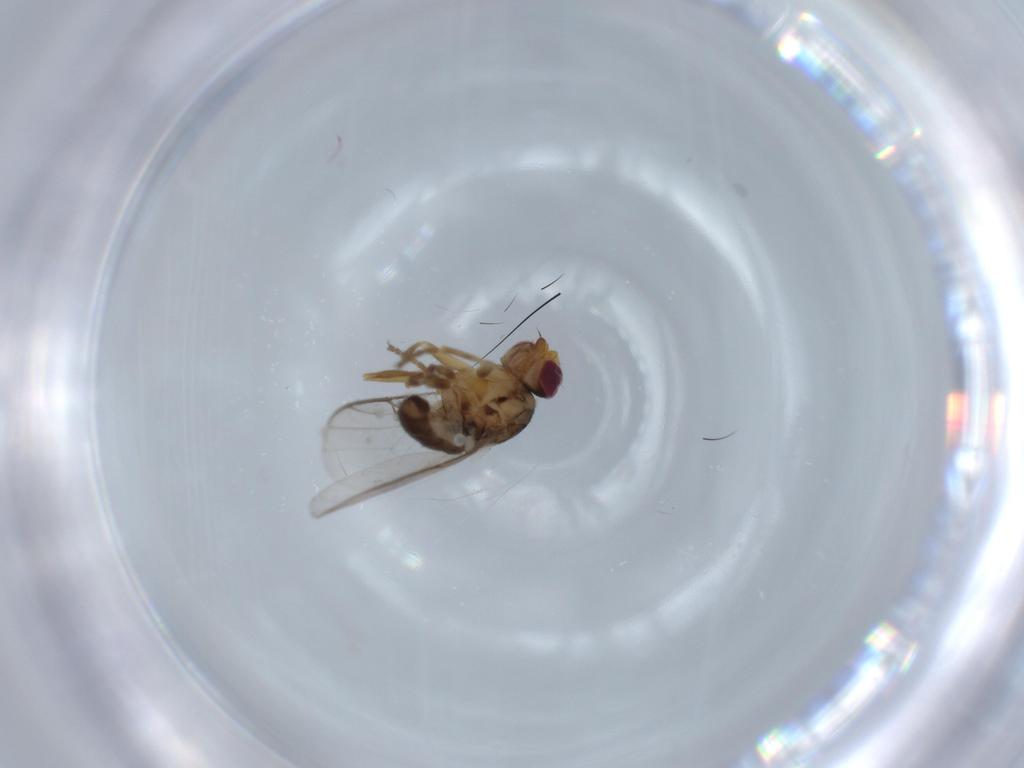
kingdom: Animalia
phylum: Arthropoda
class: Insecta
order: Diptera
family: Chloropidae
